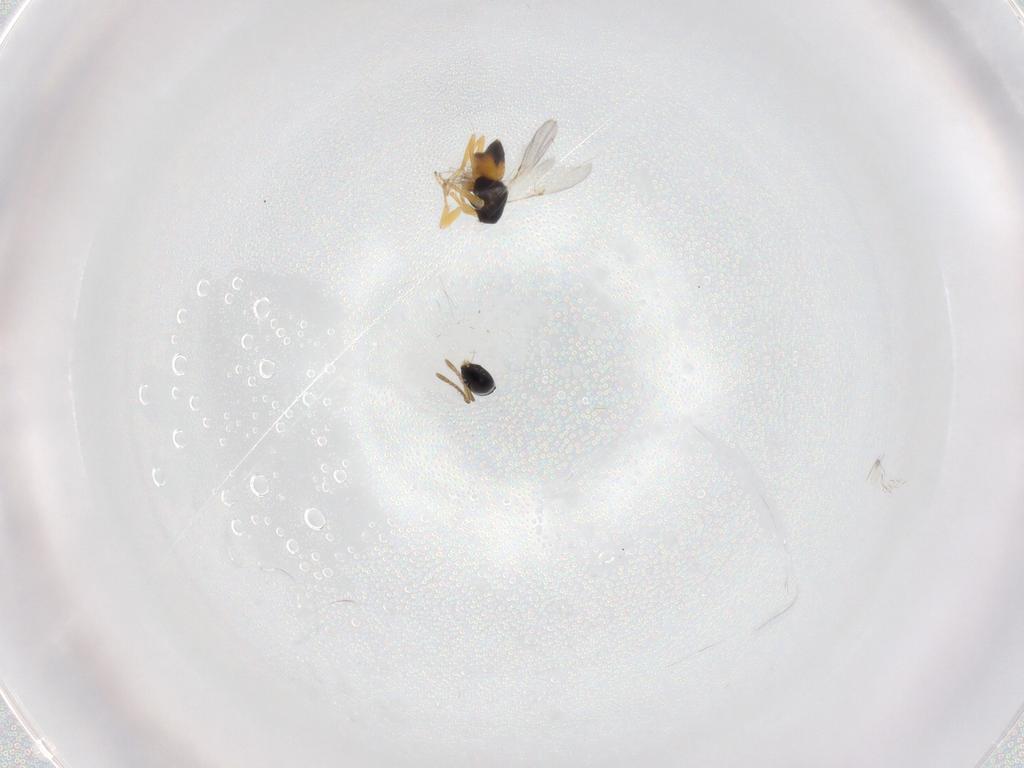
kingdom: Animalia
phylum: Arthropoda
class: Insecta
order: Hymenoptera
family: Encyrtidae
